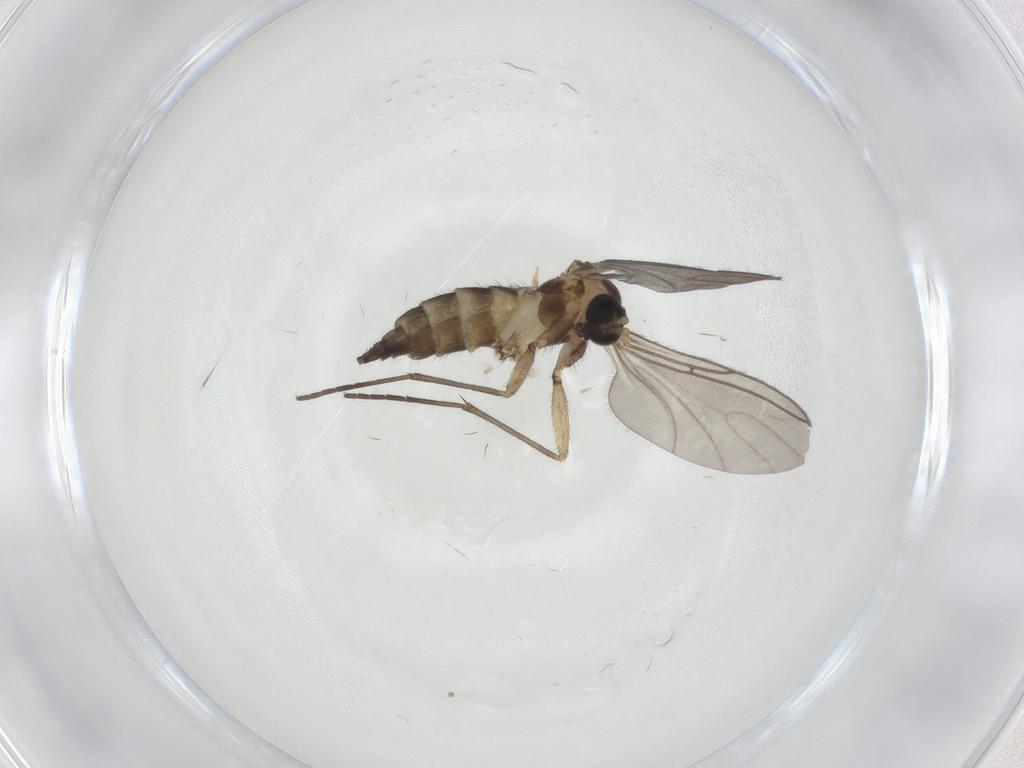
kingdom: Animalia
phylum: Arthropoda
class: Insecta
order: Diptera
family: Sciaridae
